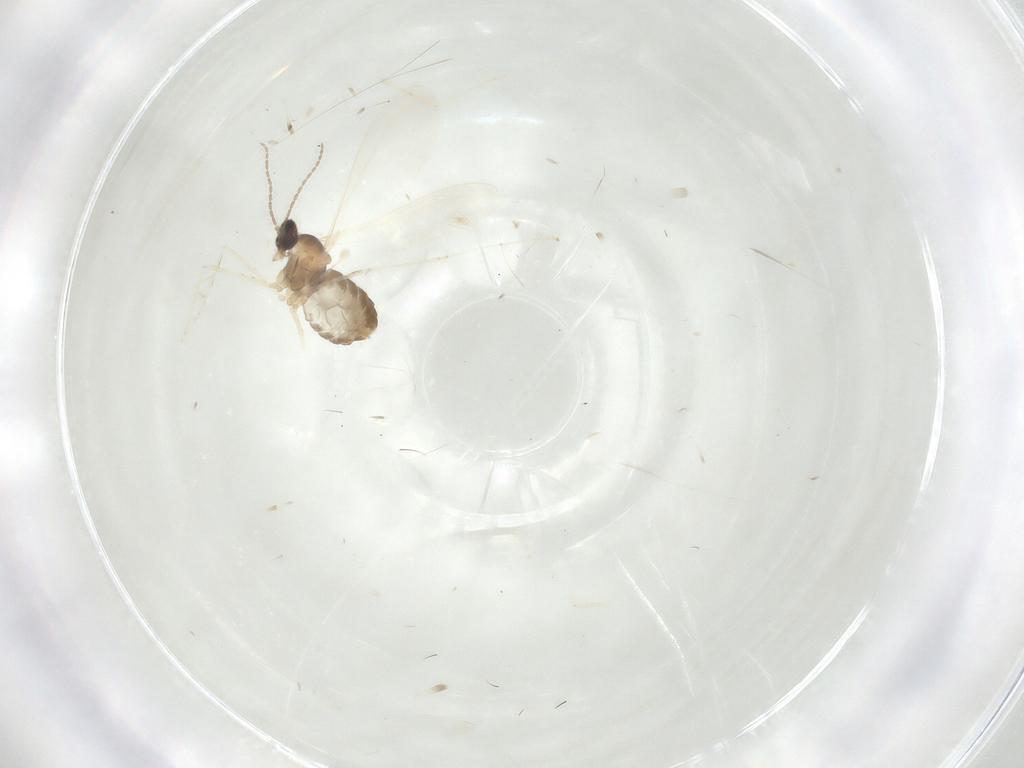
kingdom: Animalia
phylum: Arthropoda
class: Insecta
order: Diptera
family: Cecidomyiidae
